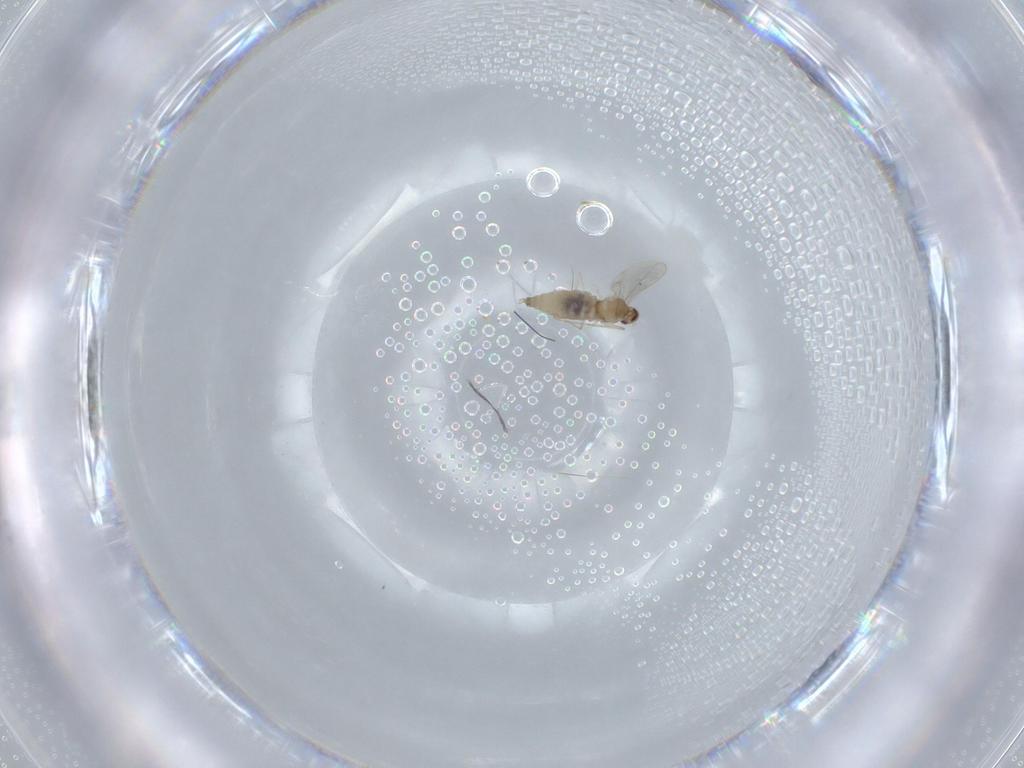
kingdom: Animalia
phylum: Arthropoda
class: Insecta
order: Diptera
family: Cecidomyiidae
